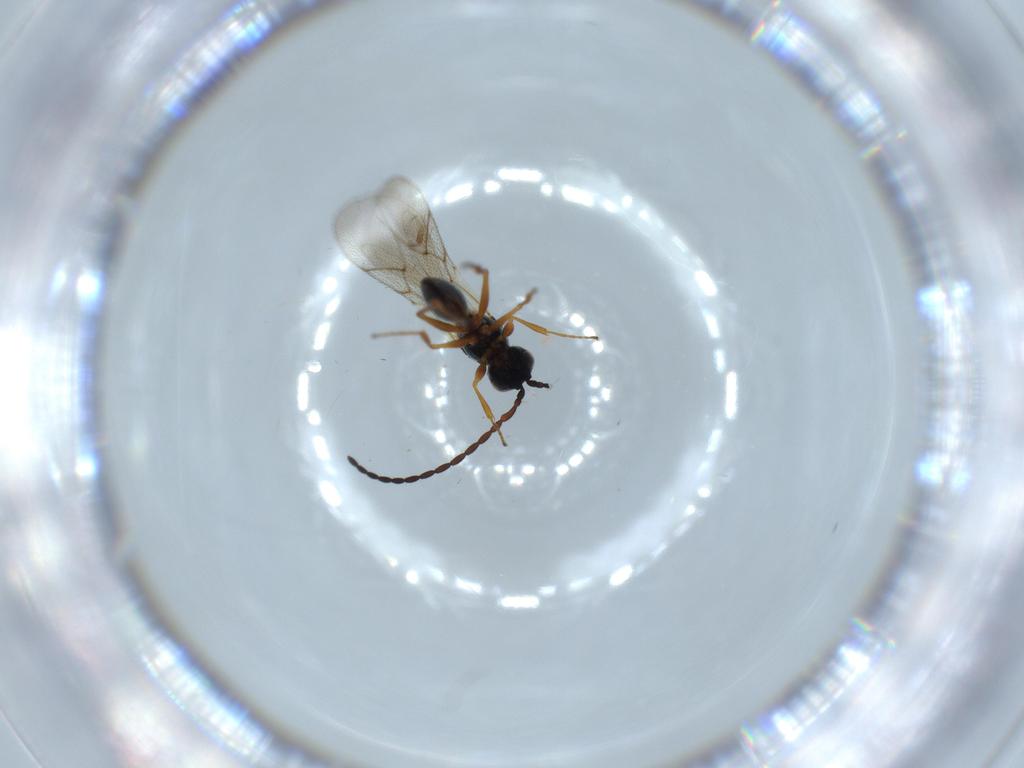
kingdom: Animalia
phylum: Arthropoda
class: Insecta
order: Hymenoptera
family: Figitidae
